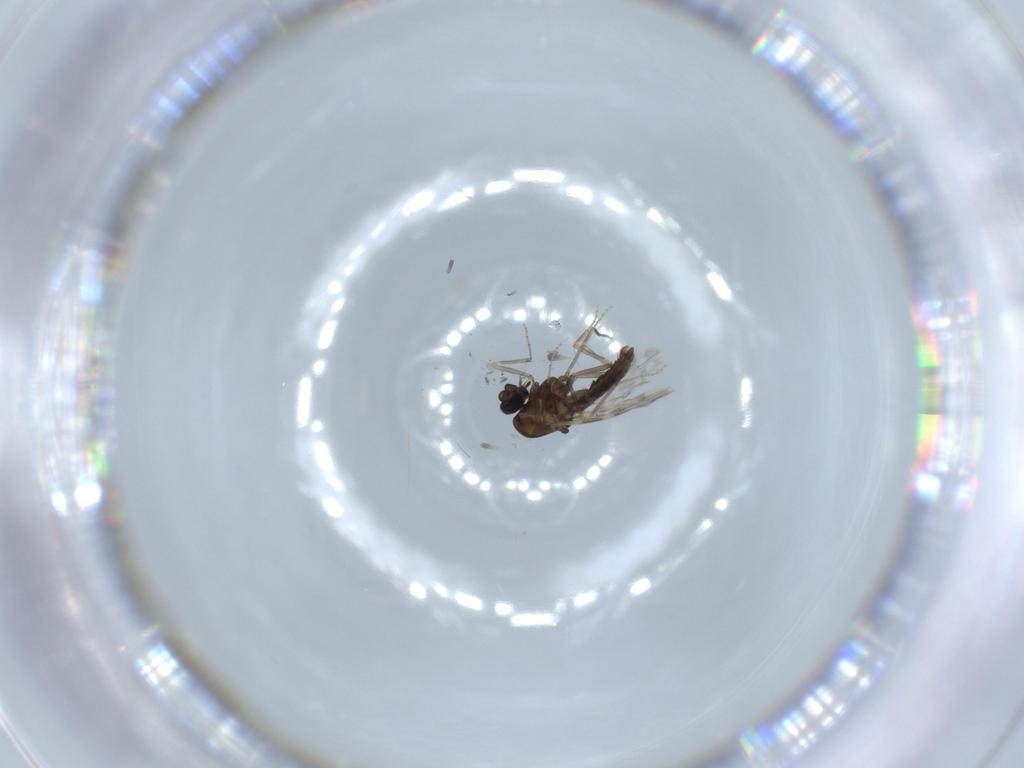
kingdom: Animalia
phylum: Arthropoda
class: Insecta
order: Diptera
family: Ceratopogonidae
